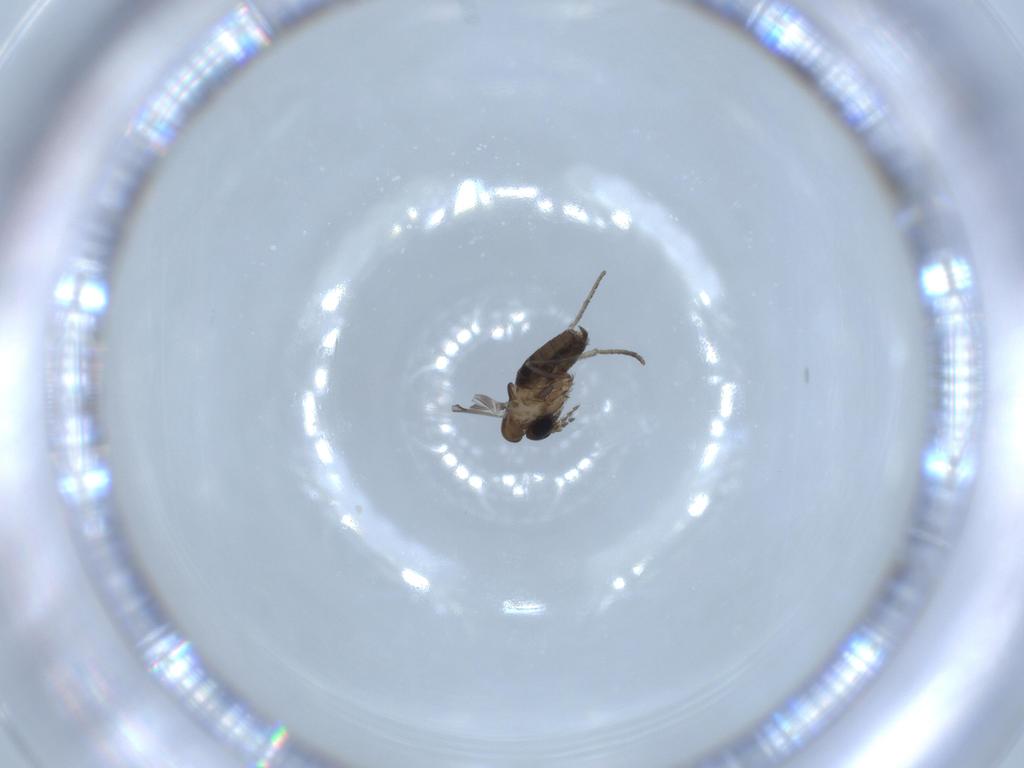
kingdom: Animalia
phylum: Arthropoda
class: Insecta
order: Diptera
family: Psychodidae
